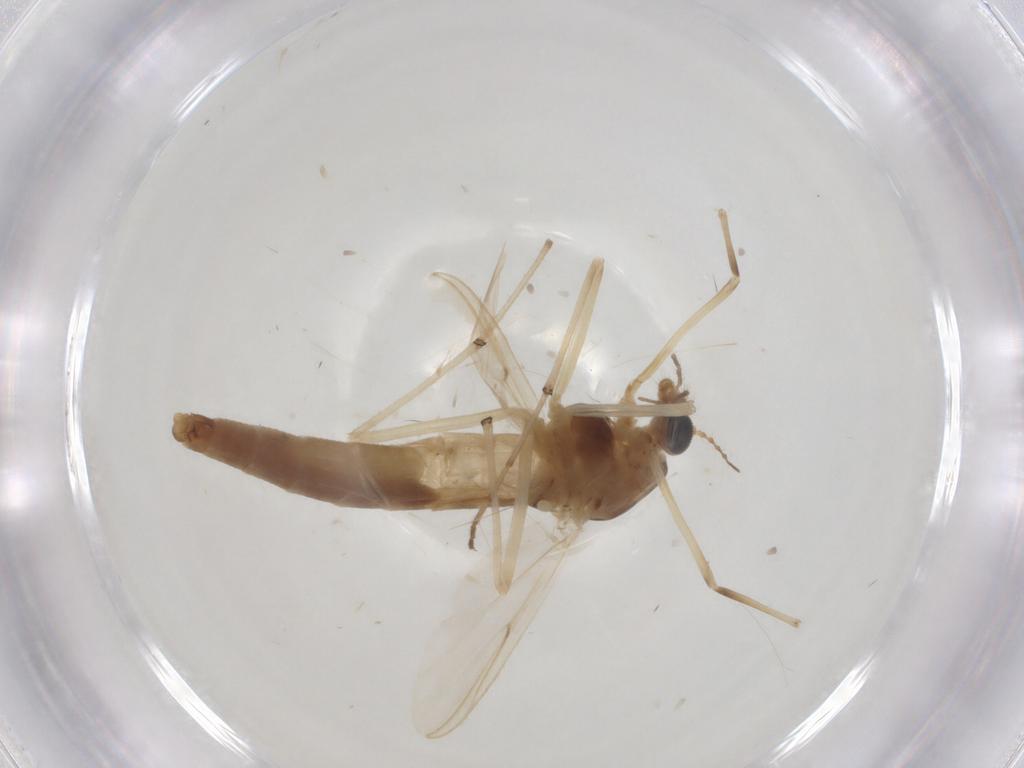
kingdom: Animalia
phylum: Arthropoda
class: Insecta
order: Diptera
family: Chironomidae
